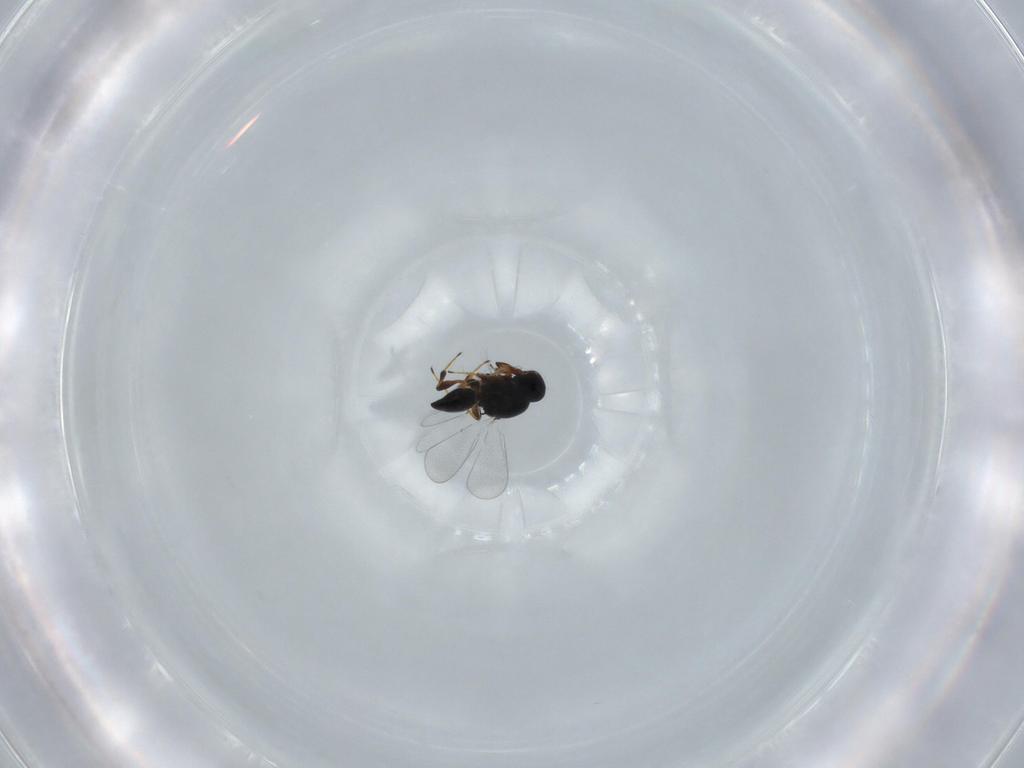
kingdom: Animalia
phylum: Arthropoda
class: Insecta
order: Hymenoptera
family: Platygastridae
